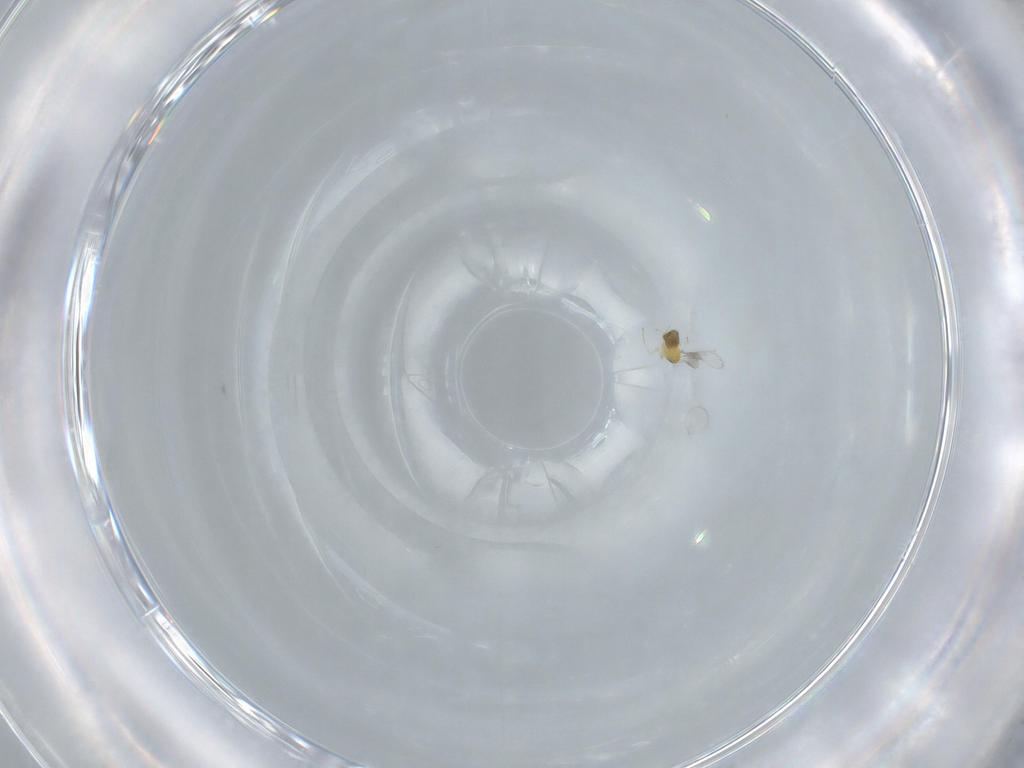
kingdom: Animalia
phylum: Arthropoda
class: Insecta
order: Hymenoptera
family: Trichogrammatidae
